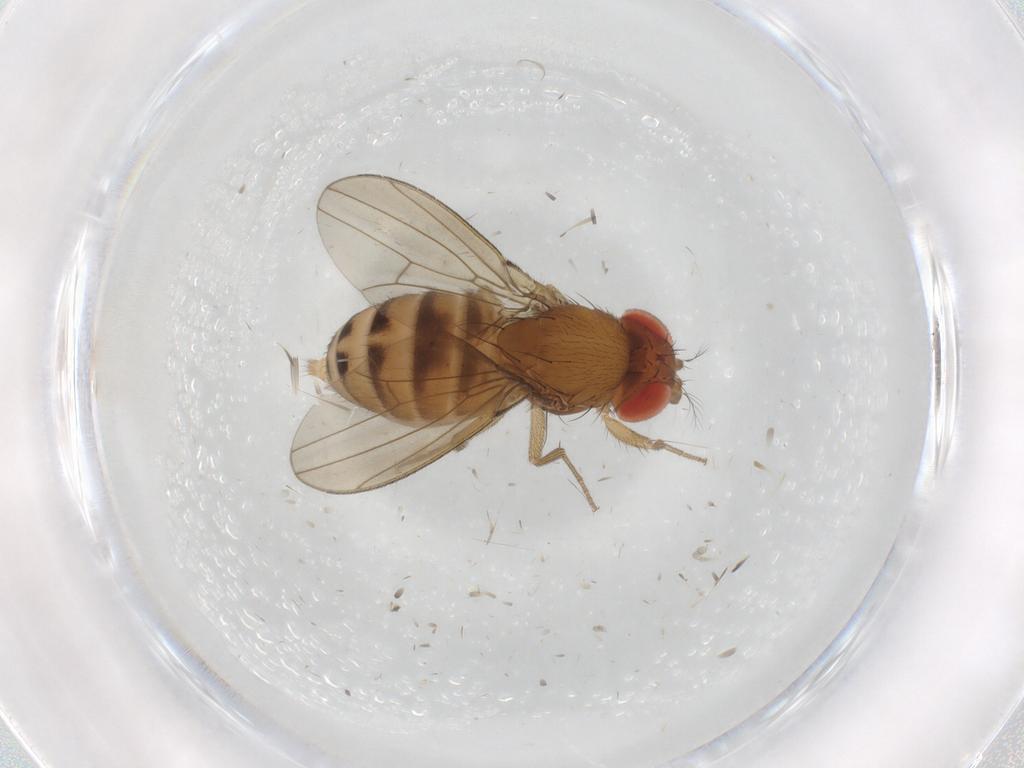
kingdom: Animalia
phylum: Arthropoda
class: Insecta
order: Diptera
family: Drosophilidae
